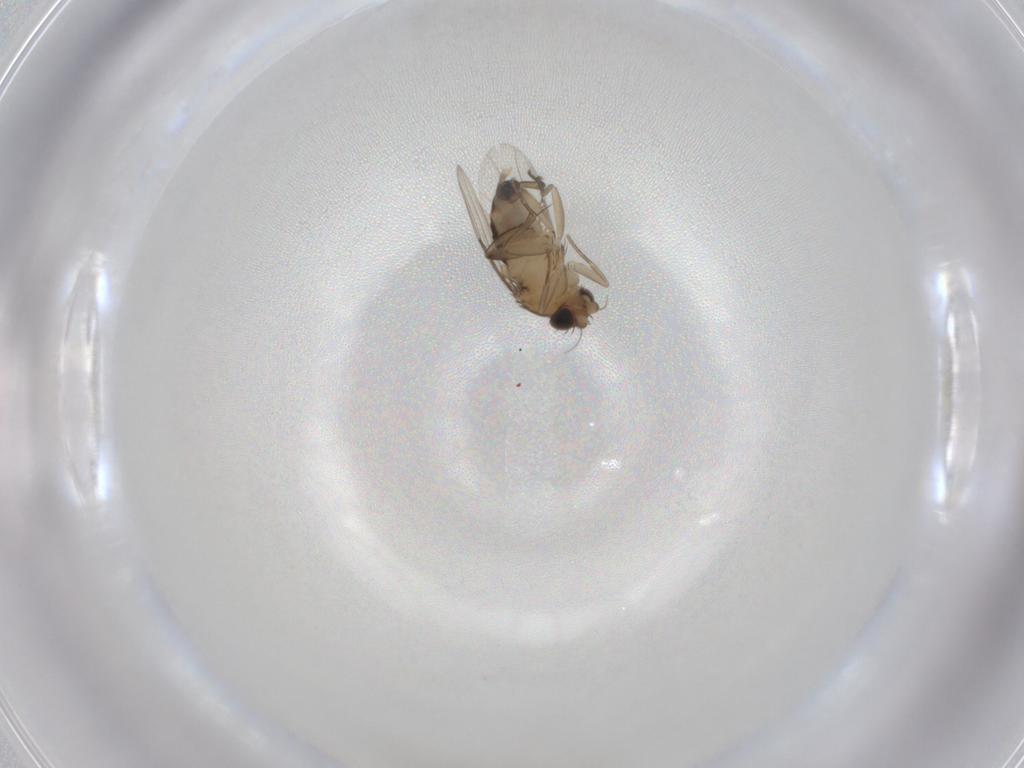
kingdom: Animalia
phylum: Arthropoda
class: Insecta
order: Diptera
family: Phoridae
